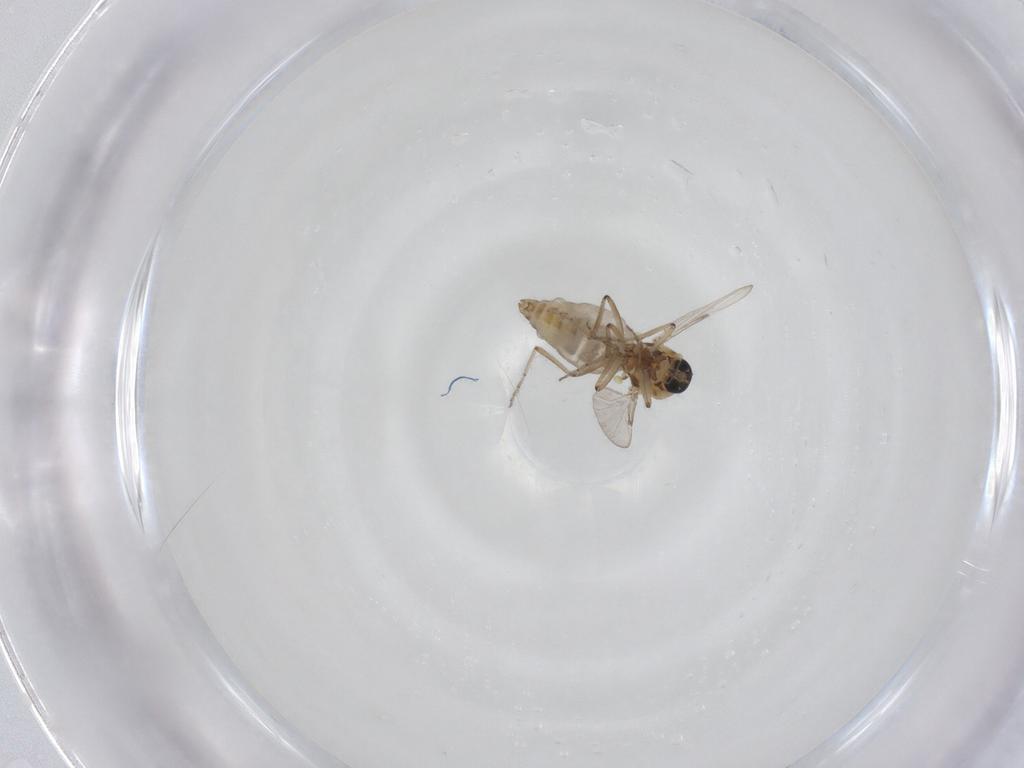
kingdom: Animalia
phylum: Arthropoda
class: Insecta
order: Diptera
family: Ceratopogonidae
